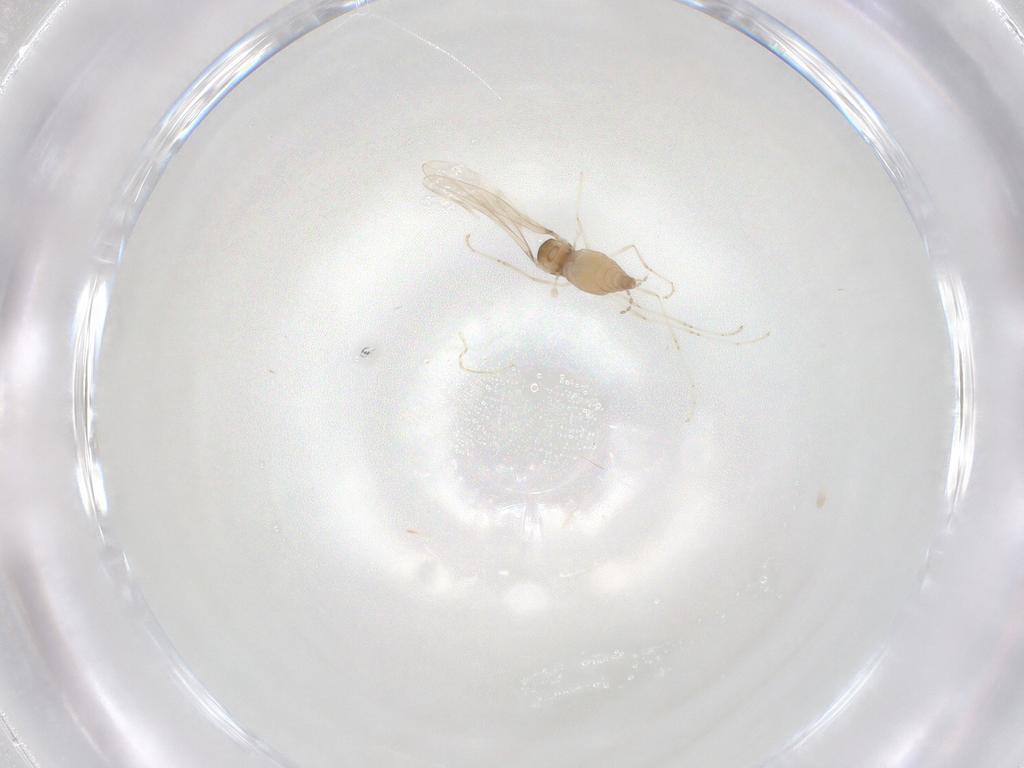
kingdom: Animalia
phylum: Arthropoda
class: Insecta
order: Diptera
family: Cecidomyiidae
